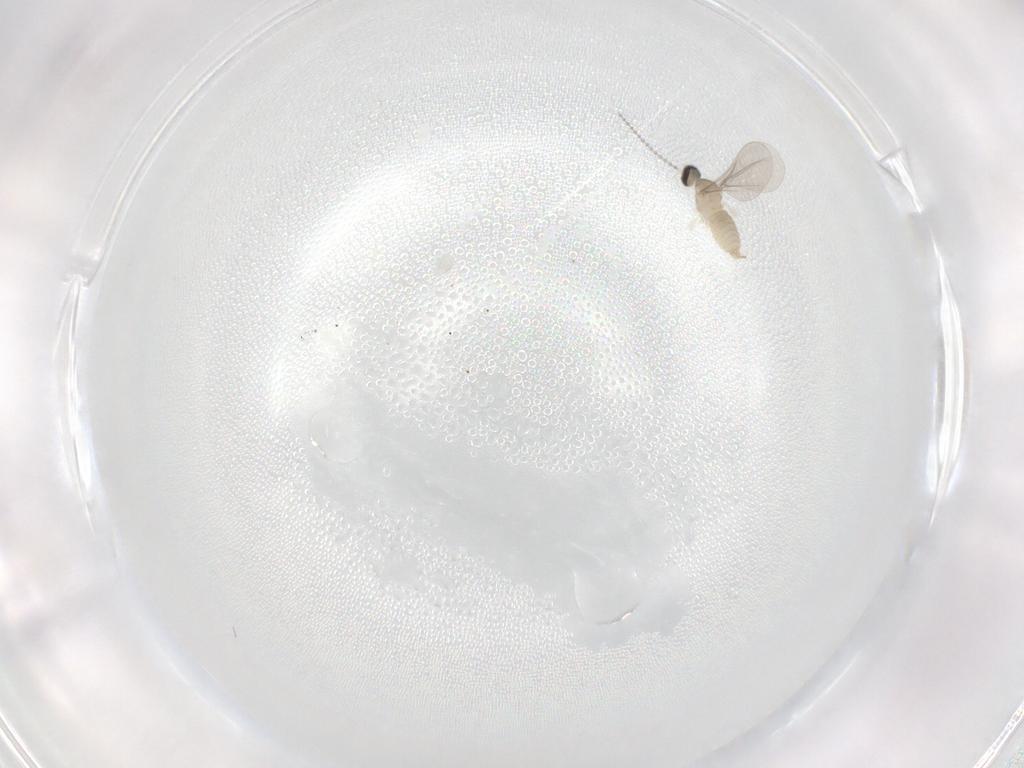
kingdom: Animalia
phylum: Arthropoda
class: Insecta
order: Diptera
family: Cecidomyiidae
